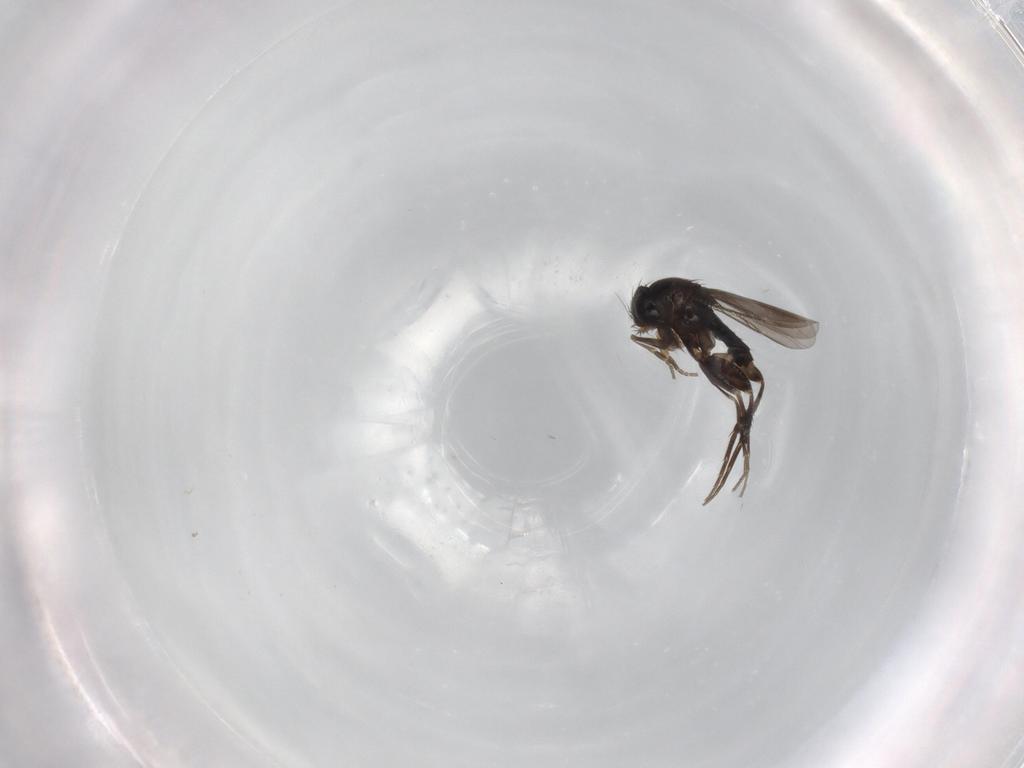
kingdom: Animalia
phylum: Arthropoda
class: Insecta
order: Diptera
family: Phoridae
